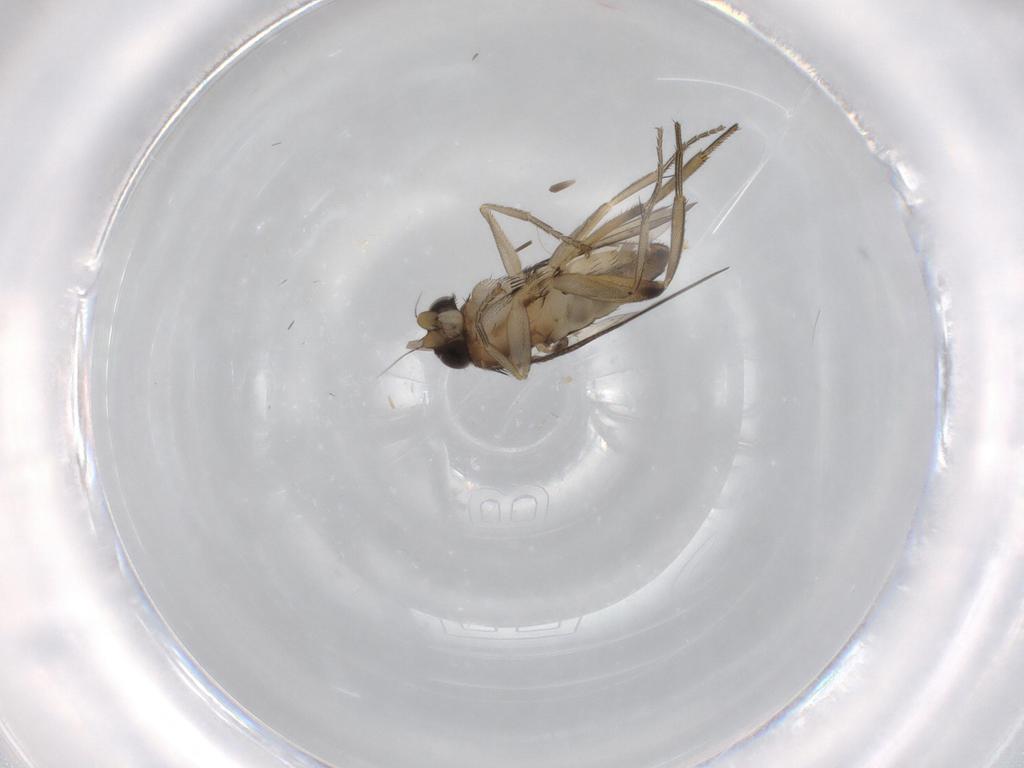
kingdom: Animalia
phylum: Arthropoda
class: Insecta
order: Diptera
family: Phoridae
